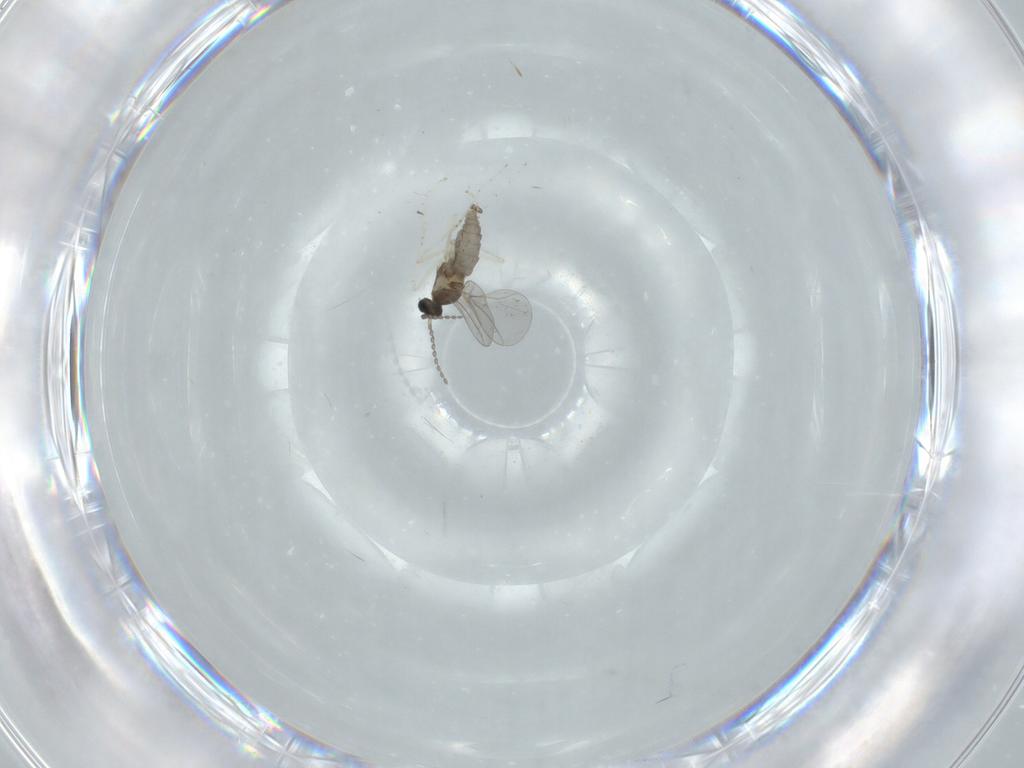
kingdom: Animalia
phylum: Arthropoda
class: Insecta
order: Diptera
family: Cecidomyiidae
